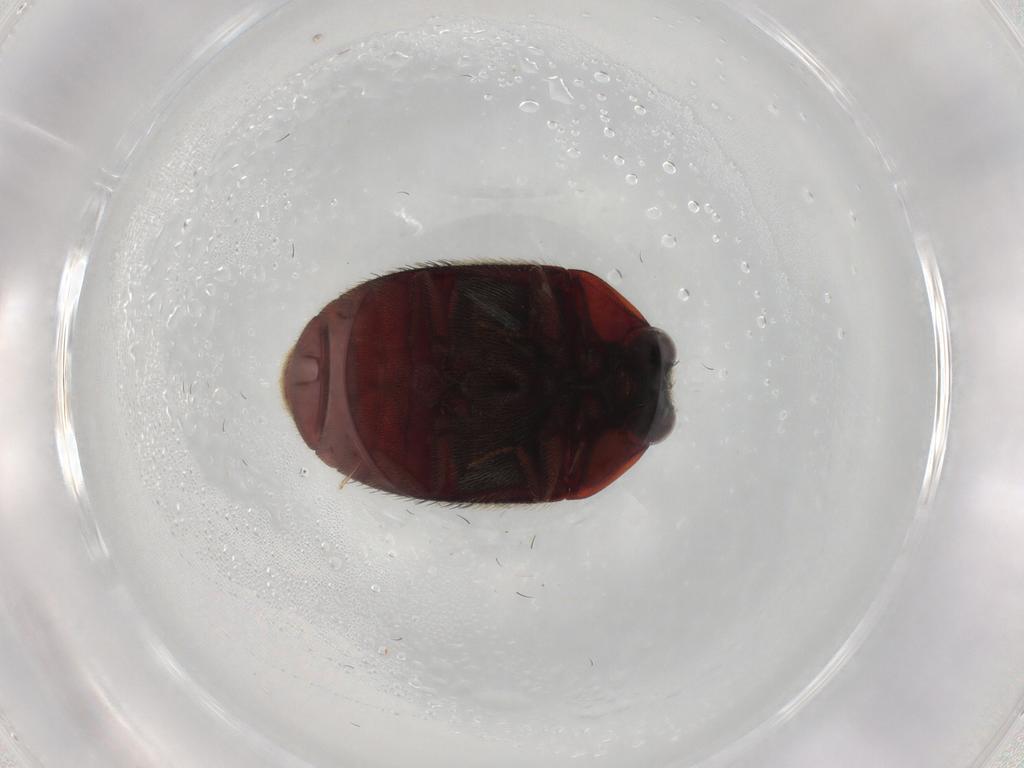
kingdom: Animalia
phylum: Arthropoda
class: Insecta
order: Coleoptera
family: Dermestidae
